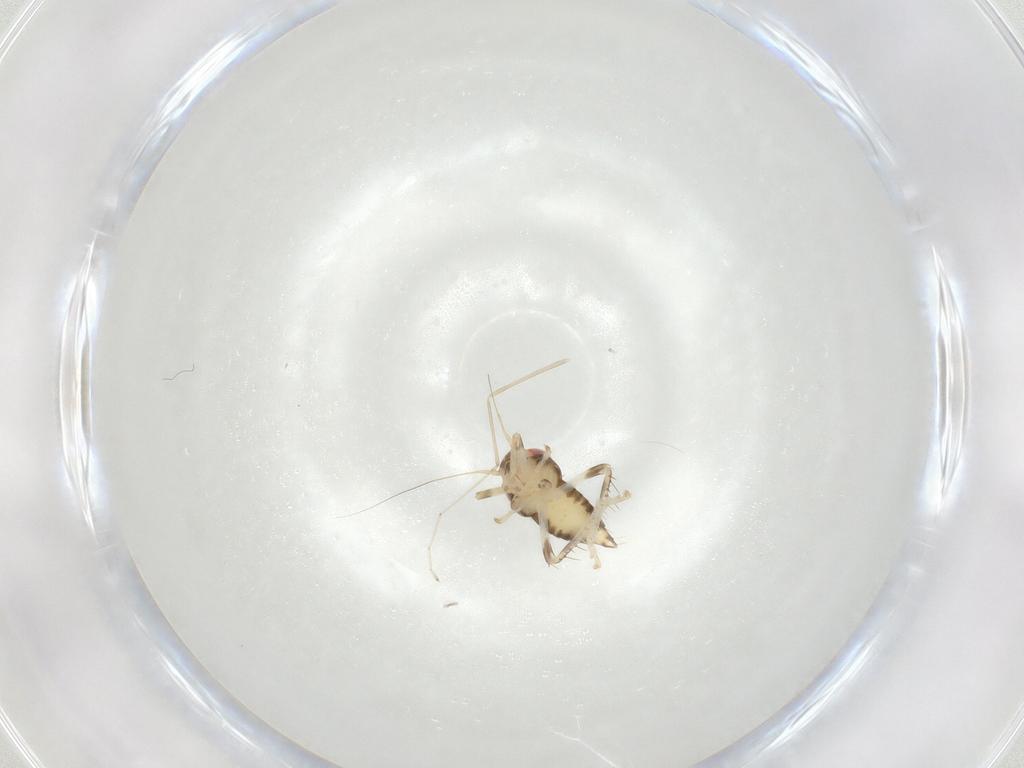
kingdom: Animalia
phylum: Arthropoda
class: Insecta
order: Hemiptera
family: Cicadellidae
